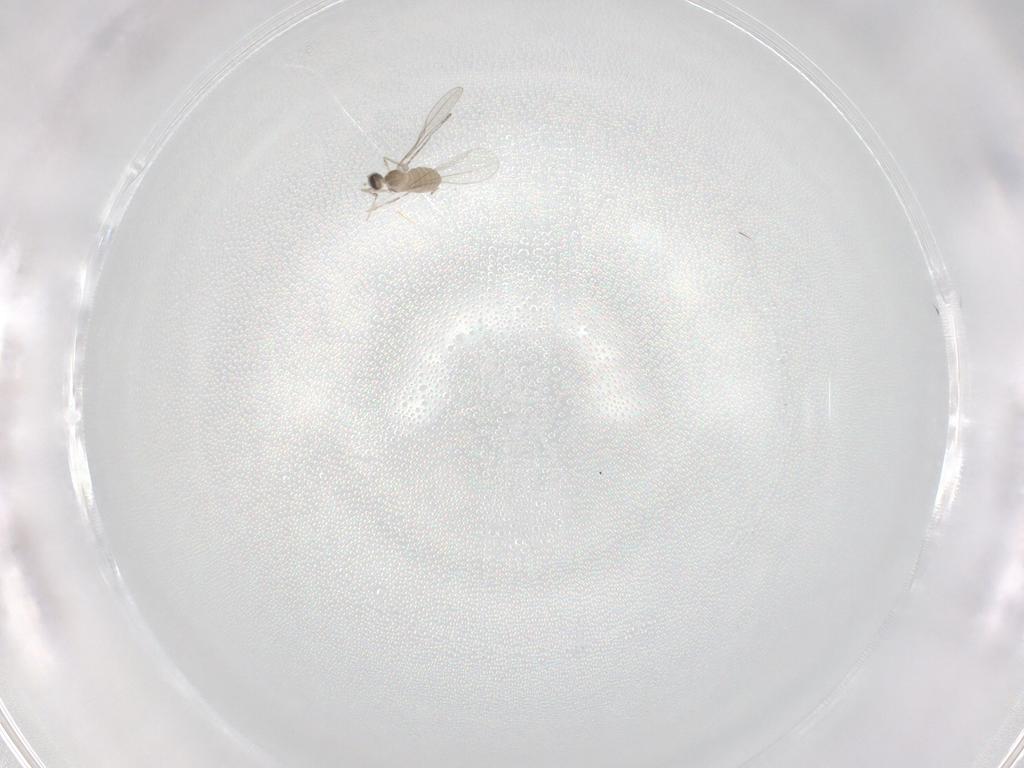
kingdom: Animalia
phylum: Arthropoda
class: Insecta
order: Diptera
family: Cecidomyiidae
